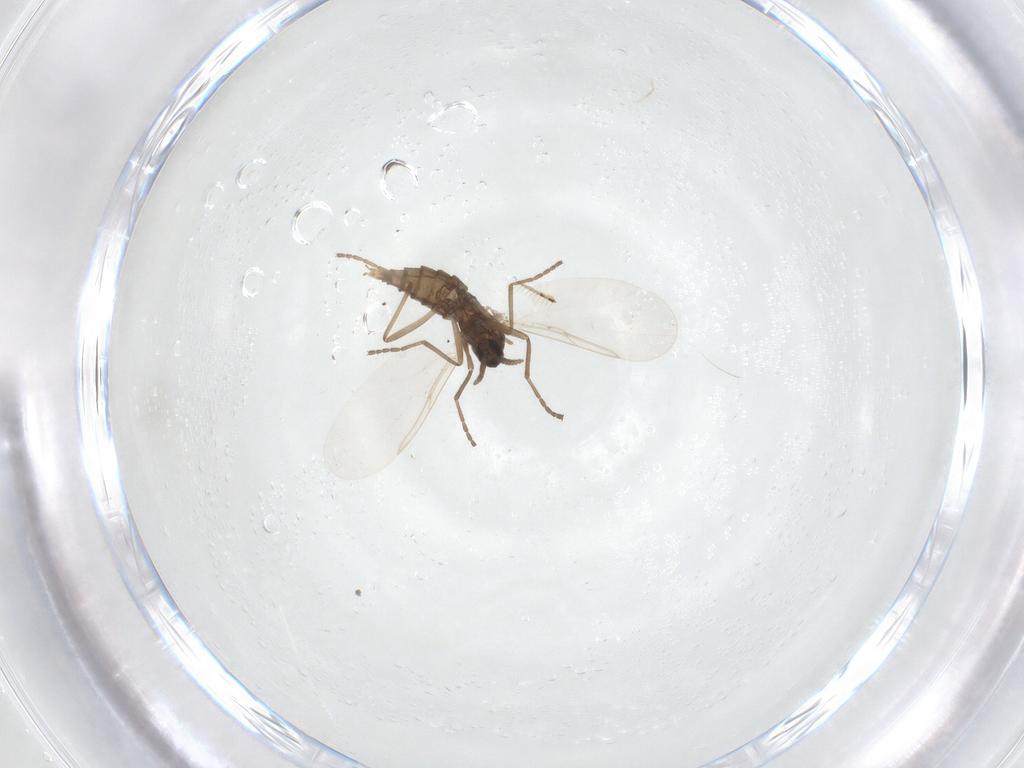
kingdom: Animalia
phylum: Arthropoda
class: Insecta
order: Diptera
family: Cecidomyiidae
